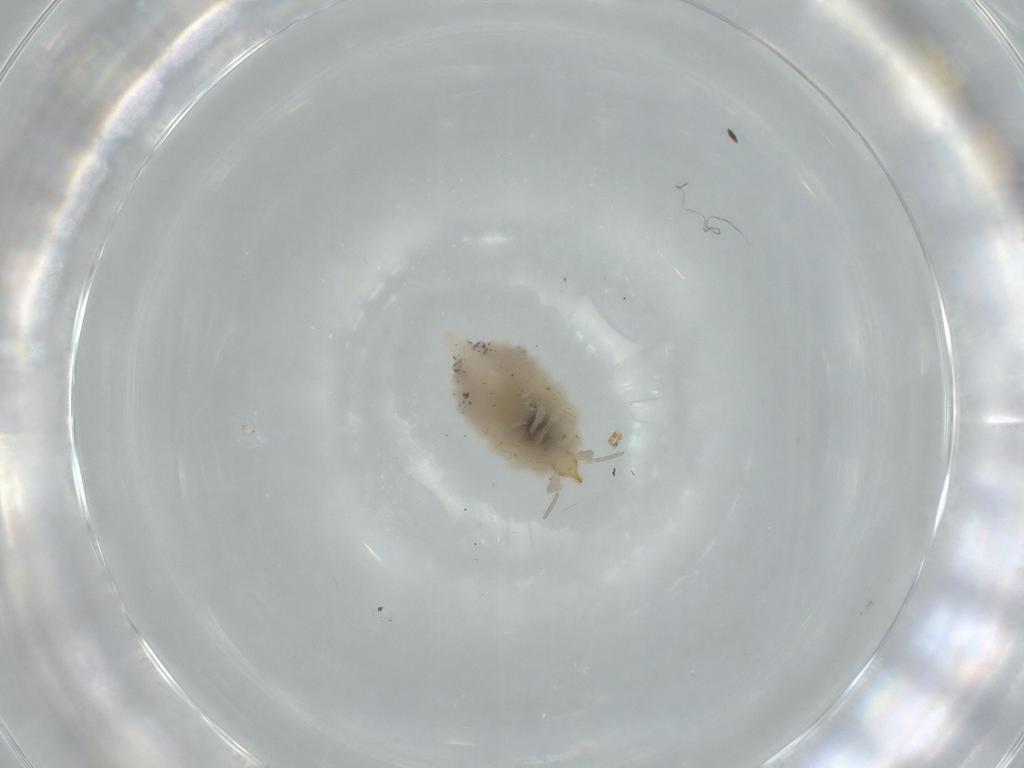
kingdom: Animalia
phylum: Arthropoda
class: Insecta
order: Neuroptera
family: Coniopterygidae
